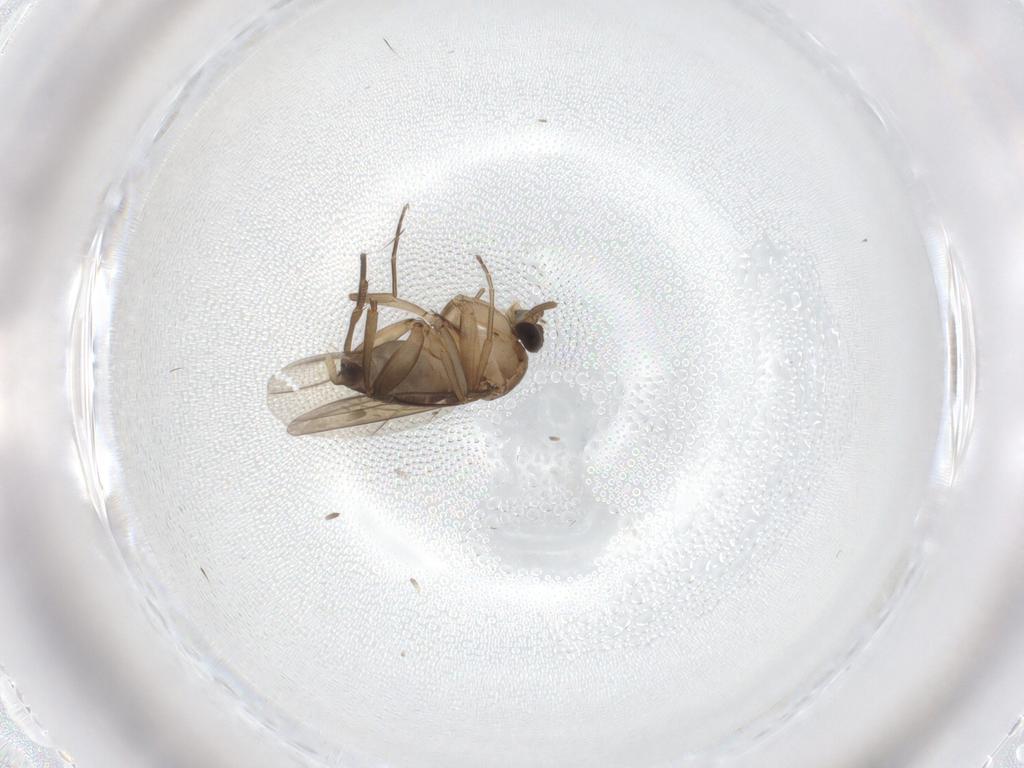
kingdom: Animalia
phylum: Arthropoda
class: Insecta
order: Diptera
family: Phoridae
